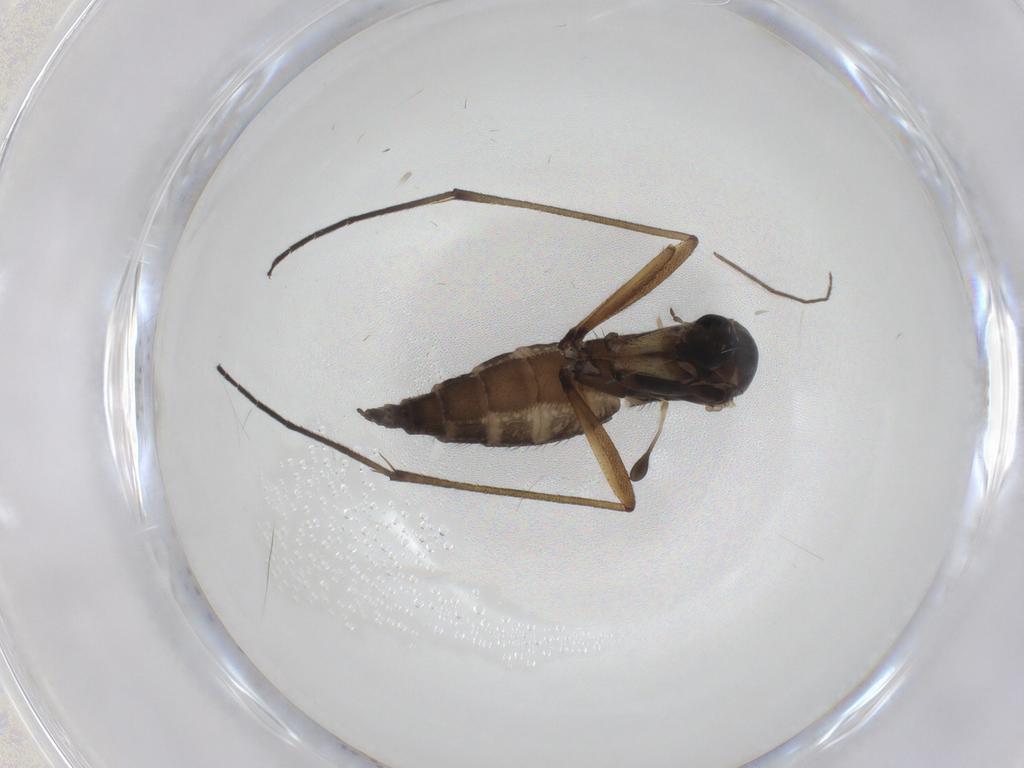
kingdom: Animalia
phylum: Arthropoda
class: Insecta
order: Diptera
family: Sciaridae
